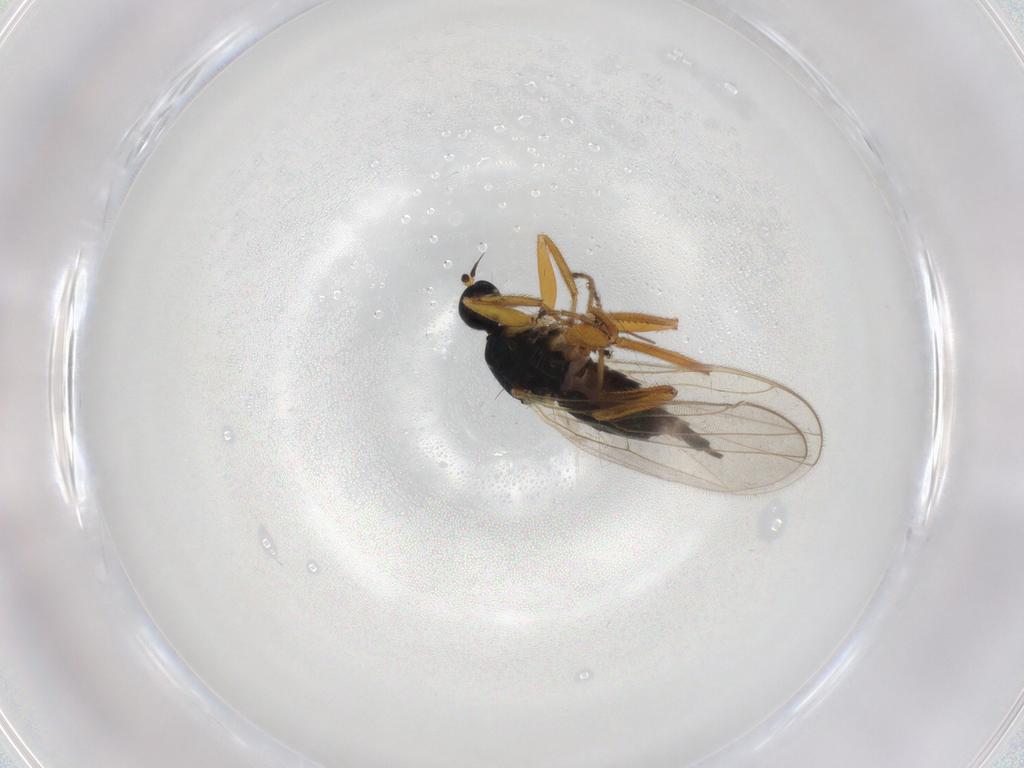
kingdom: Animalia
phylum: Arthropoda
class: Insecta
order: Diptera
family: Hybotidae
